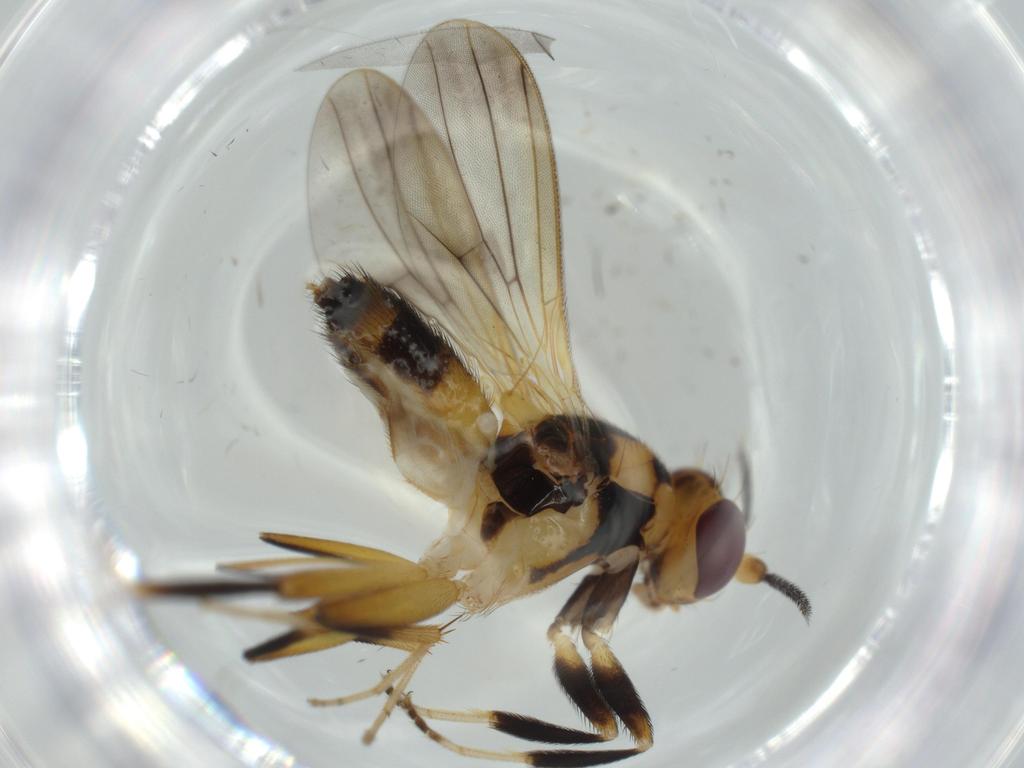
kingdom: Animalia
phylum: Arthropoda
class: Insecta
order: Diptera
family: Clusiidae
